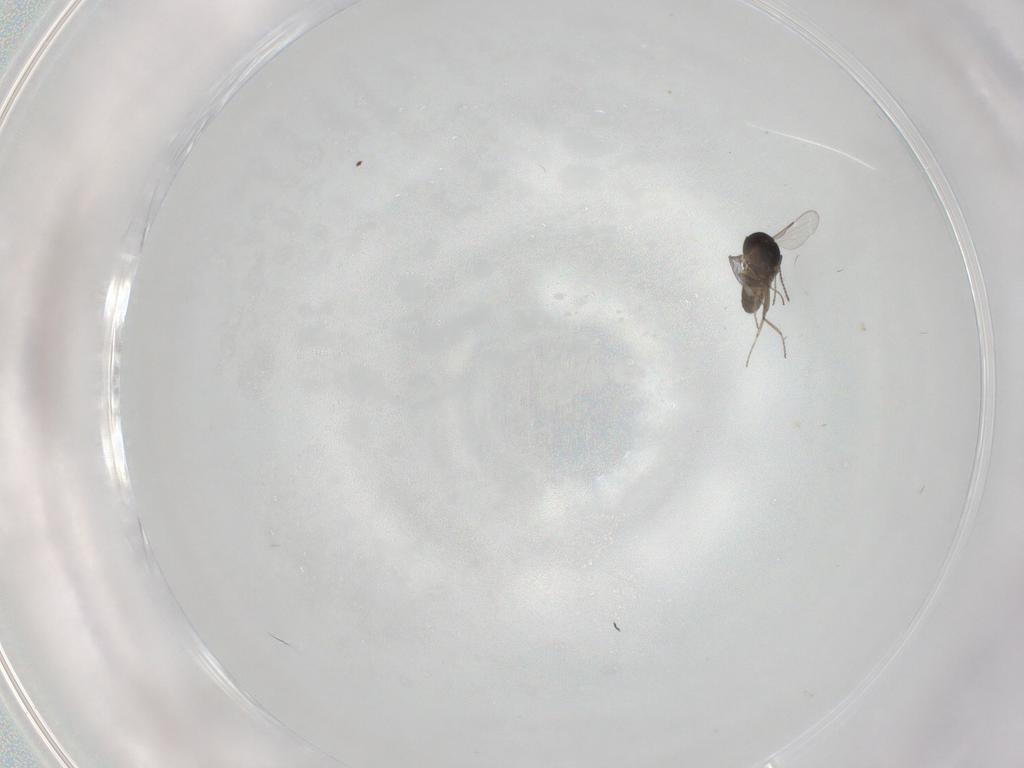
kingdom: Animalia
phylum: Arthropoda
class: Insecta
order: Diptera
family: Ceratopogonidae
